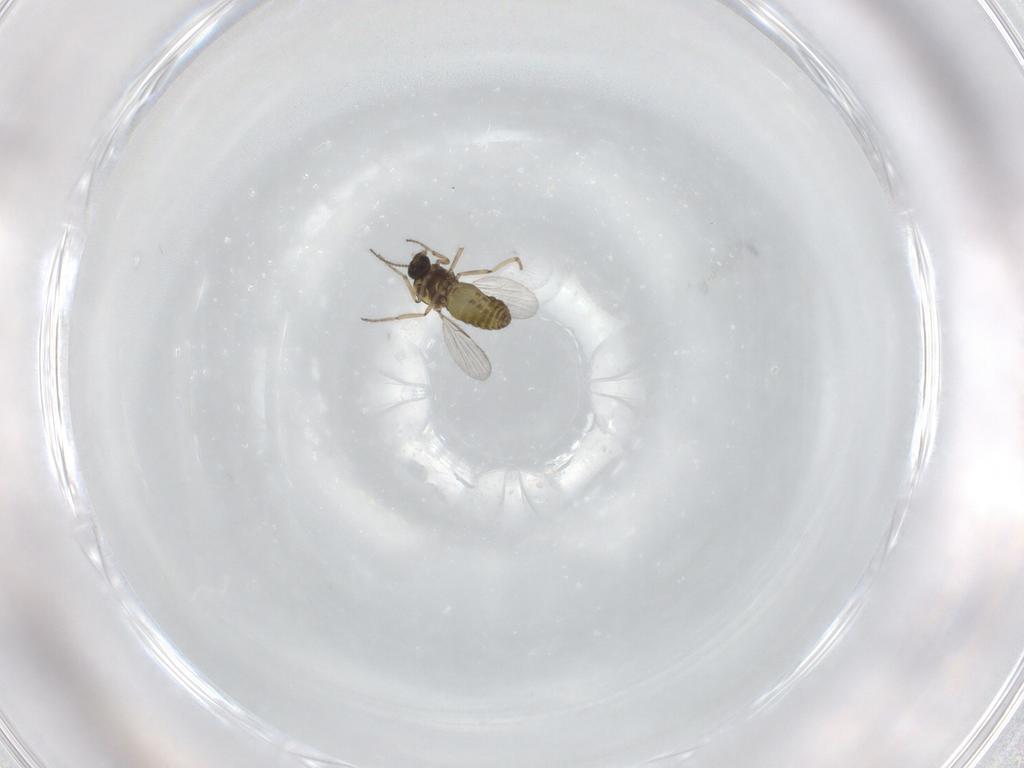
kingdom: Animalia
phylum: Arthropoda
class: Insecta
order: Diptera
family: Ceratopogonidae
